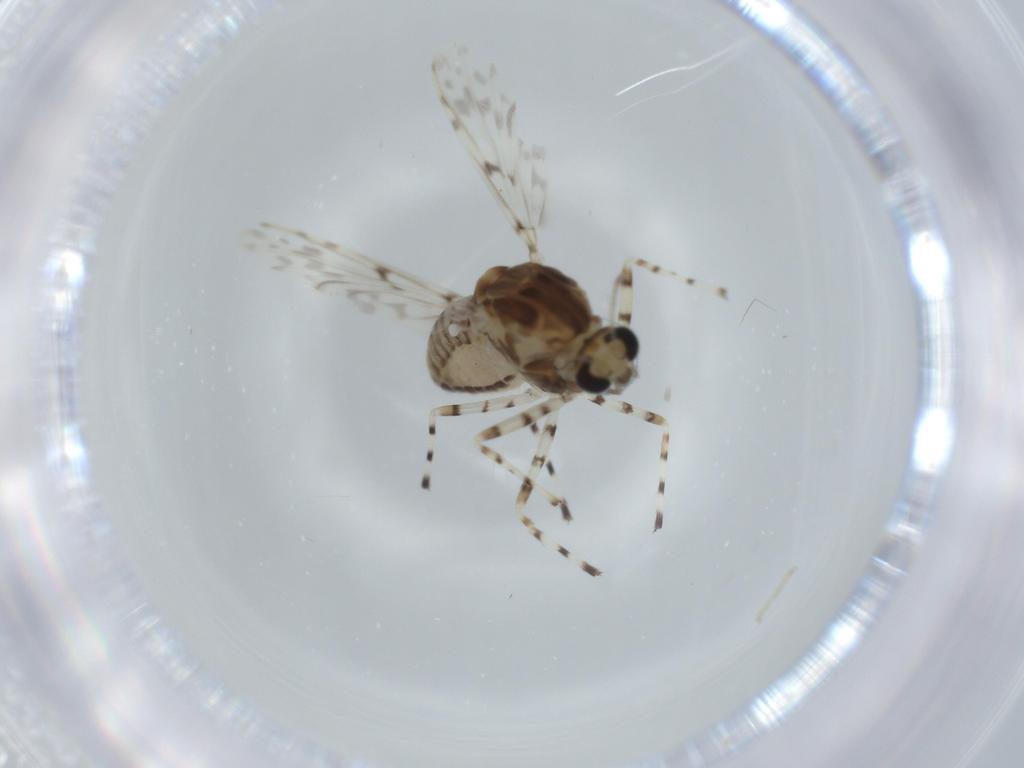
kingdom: Animalia
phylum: Arthropoda
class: Insecta
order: Diptera
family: Chironomidae
